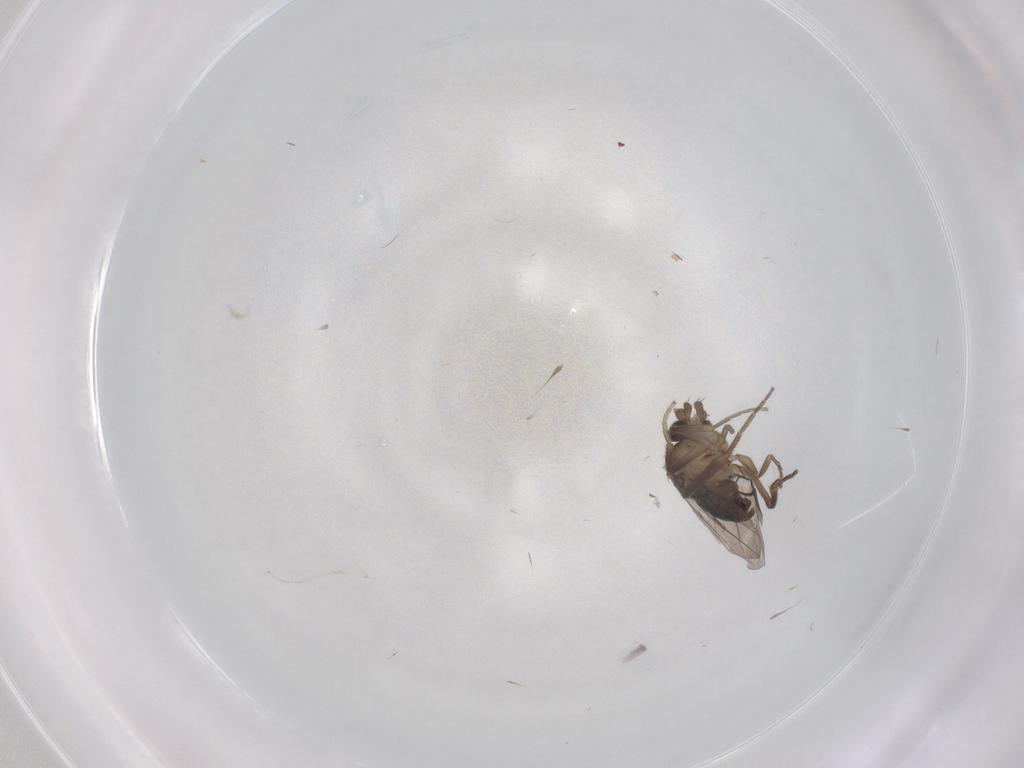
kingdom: Animalia
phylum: Arthropoda
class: Insecta
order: Diptera
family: Phoridae
